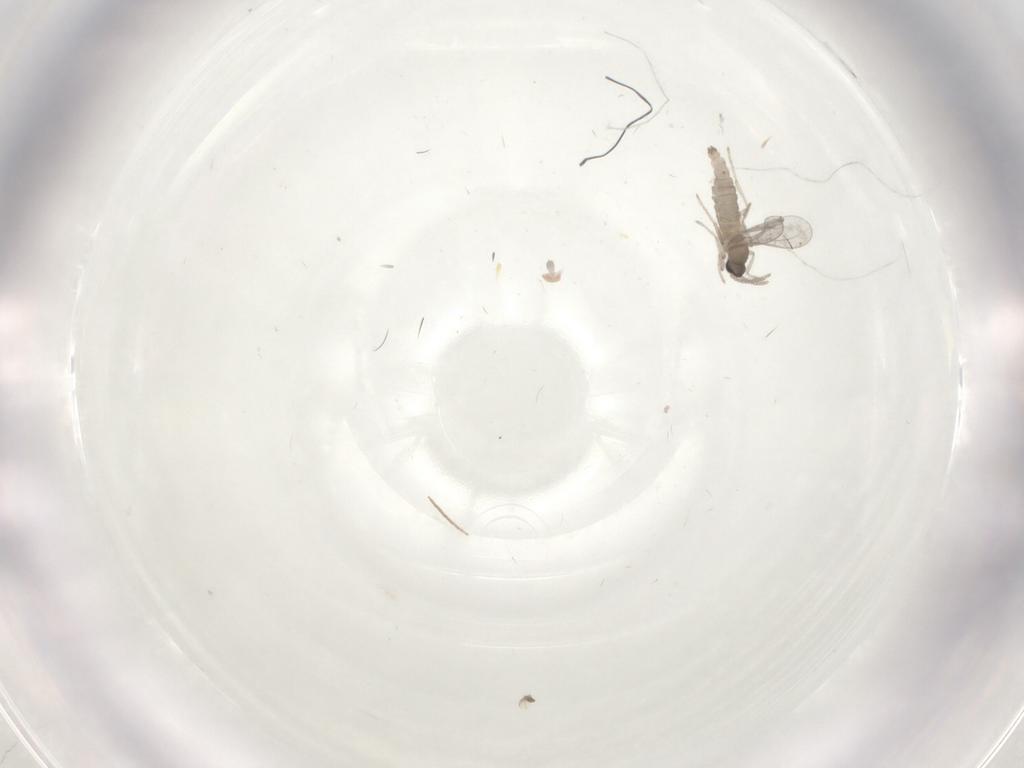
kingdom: Animalia
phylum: Arthropoda
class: Insecta
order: Diptera
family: Cecidomyiidae
